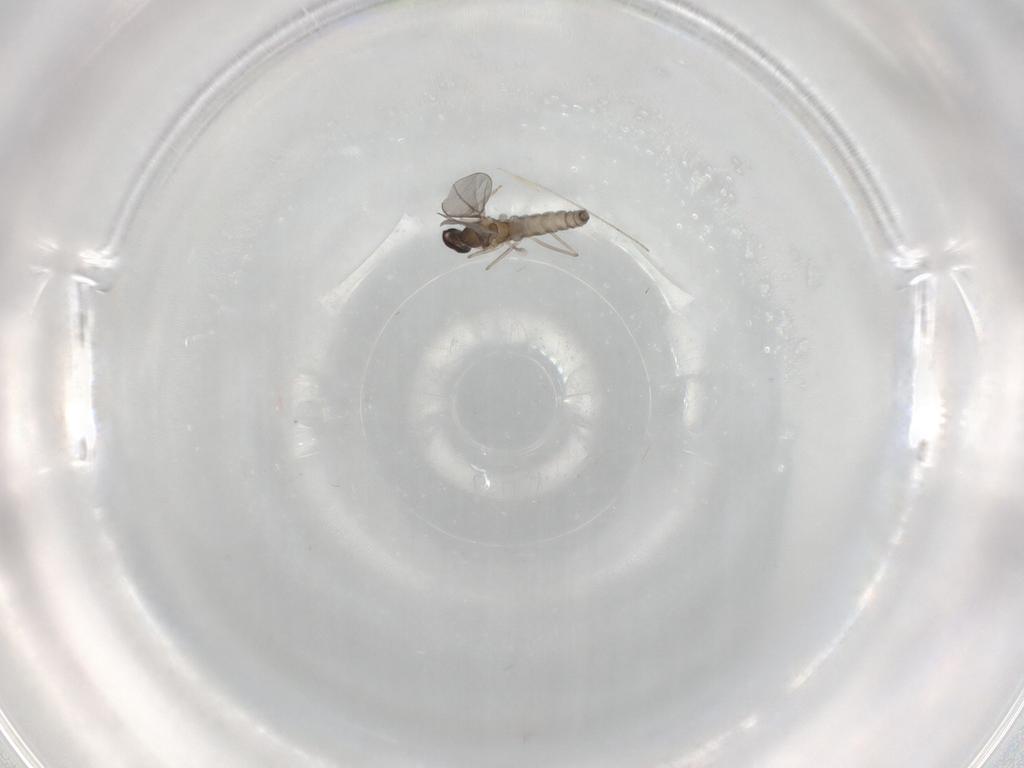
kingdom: Animalia
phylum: Arthropoda
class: Insecta
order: Diptera
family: Cecidomyiidae
